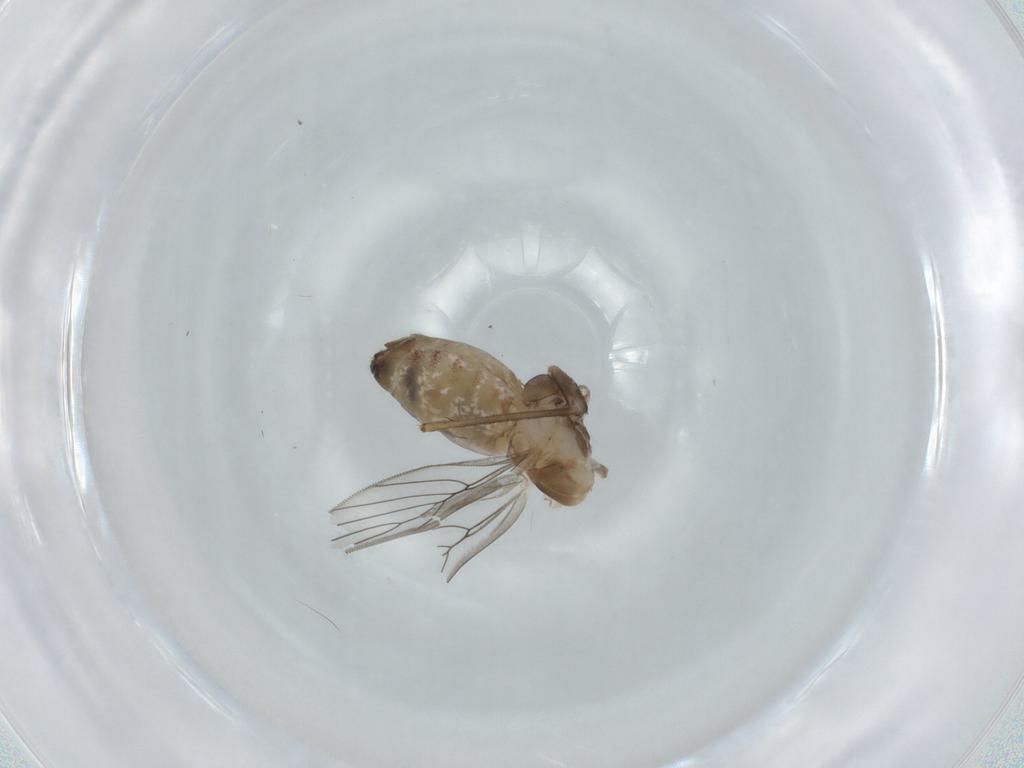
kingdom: Animalia
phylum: Arthropoda
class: Insecta
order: Psocodea
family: Lepidopsocidae
